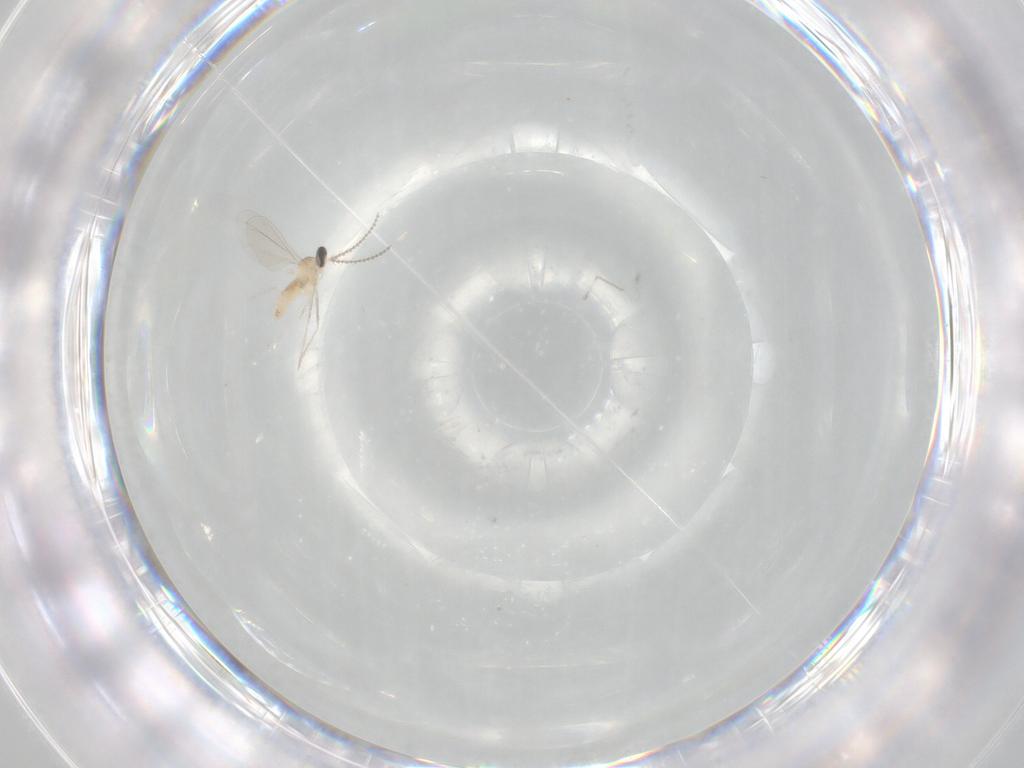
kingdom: Animalia
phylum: Arthropoda
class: Insecta
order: Diptera
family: Cecidomyiidae
